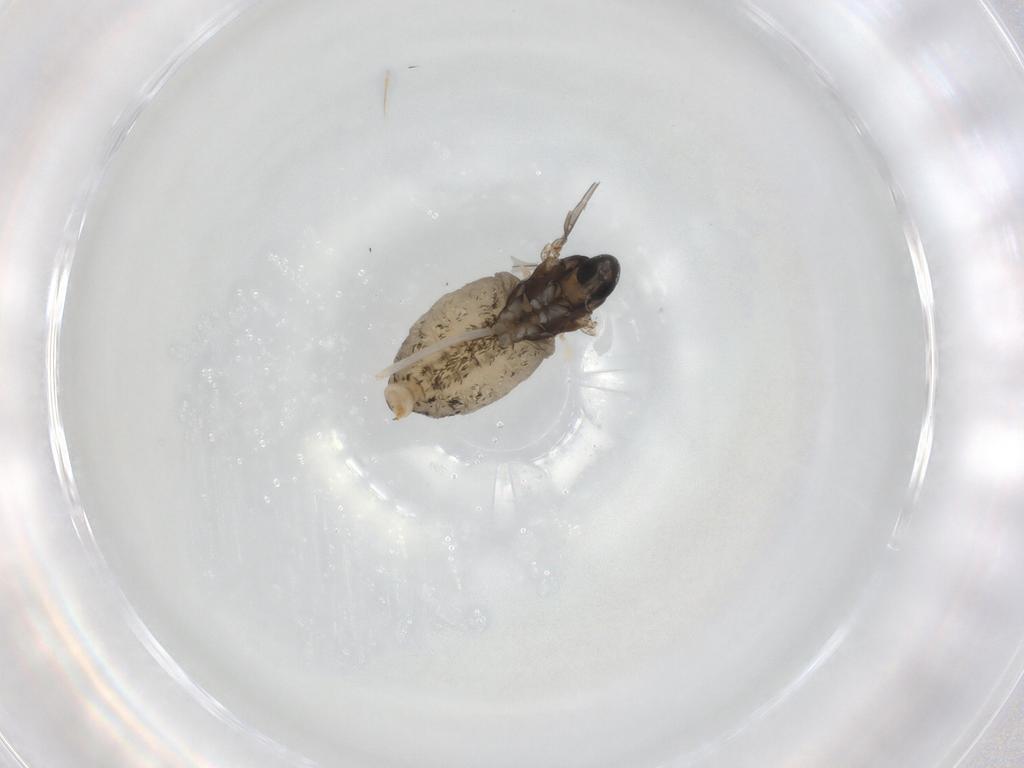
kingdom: Animalia
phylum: Arthropoda
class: Insecta
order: Diptera
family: Cecidomyiidae
